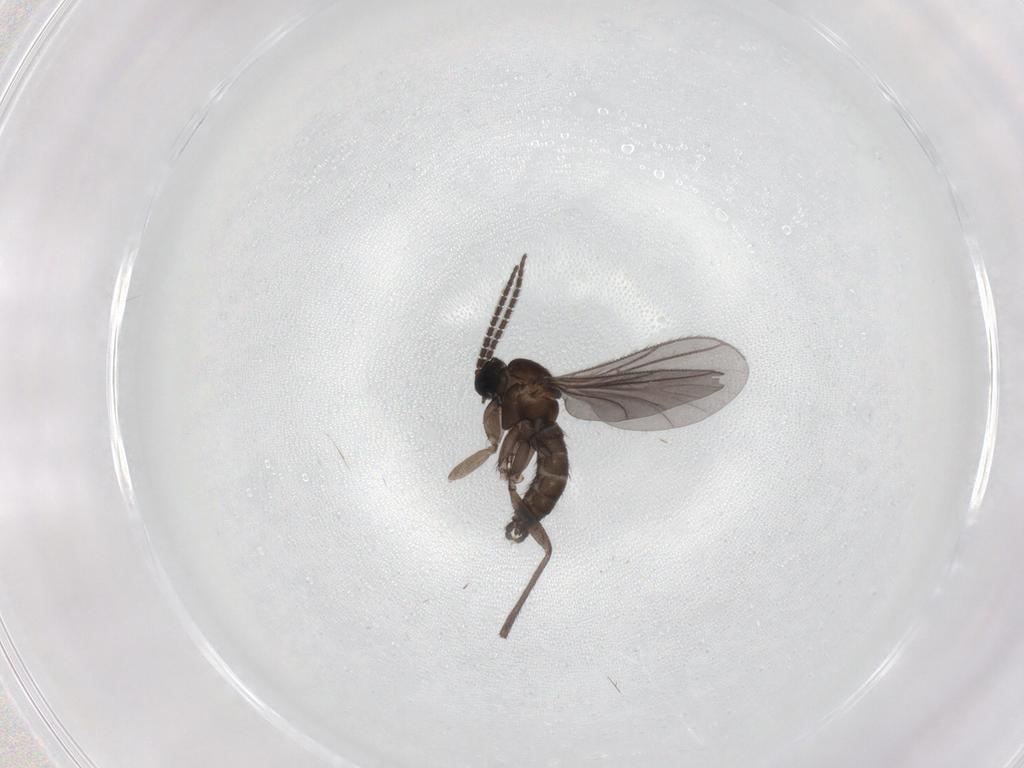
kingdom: Animalia
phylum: Arthropoda
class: Insecta
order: Diptera
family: Sciaridae
